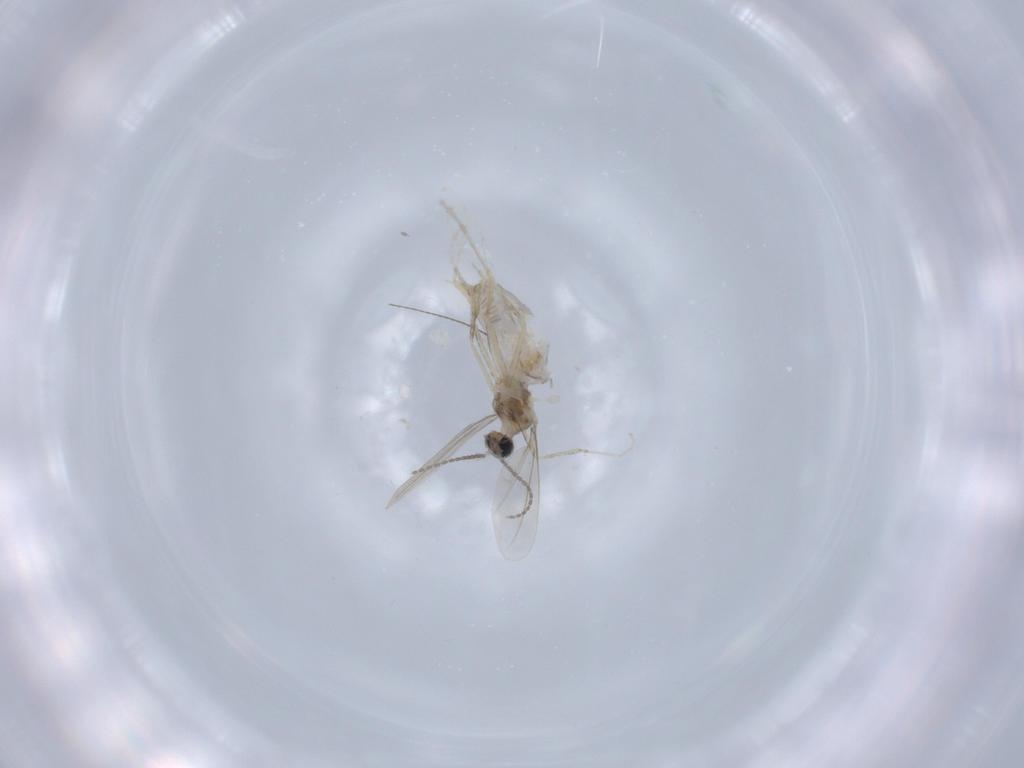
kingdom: Animalia
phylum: Arthropoda
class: Insecta
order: Diptera
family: Cecidomyiidae
